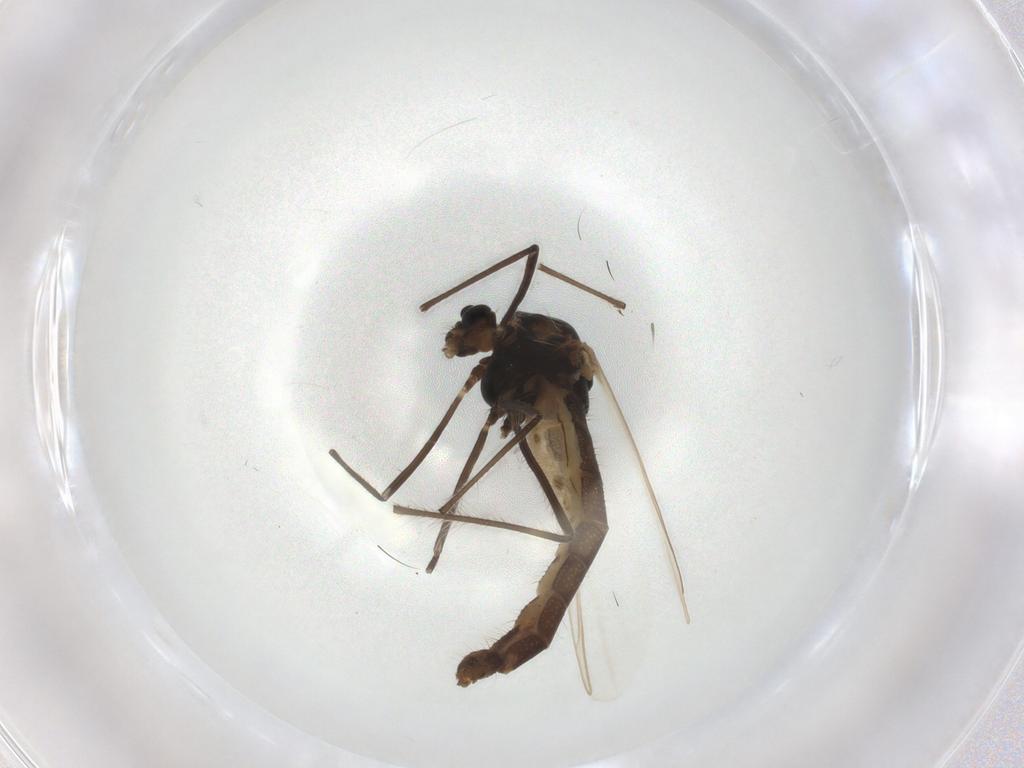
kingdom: Animalia
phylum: Arthropoda
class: Insecta
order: Diptera
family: Chironomidae
